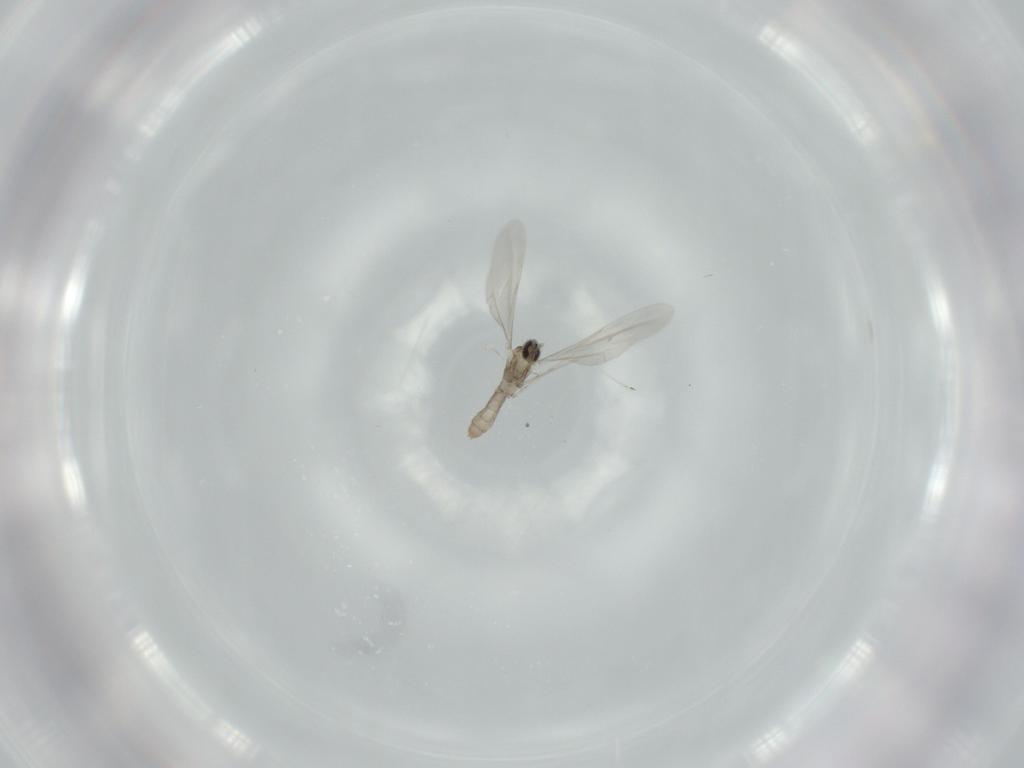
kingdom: Animalia
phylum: Arthropoda
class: Insecta
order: Diptera
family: Cecidomyiidae
